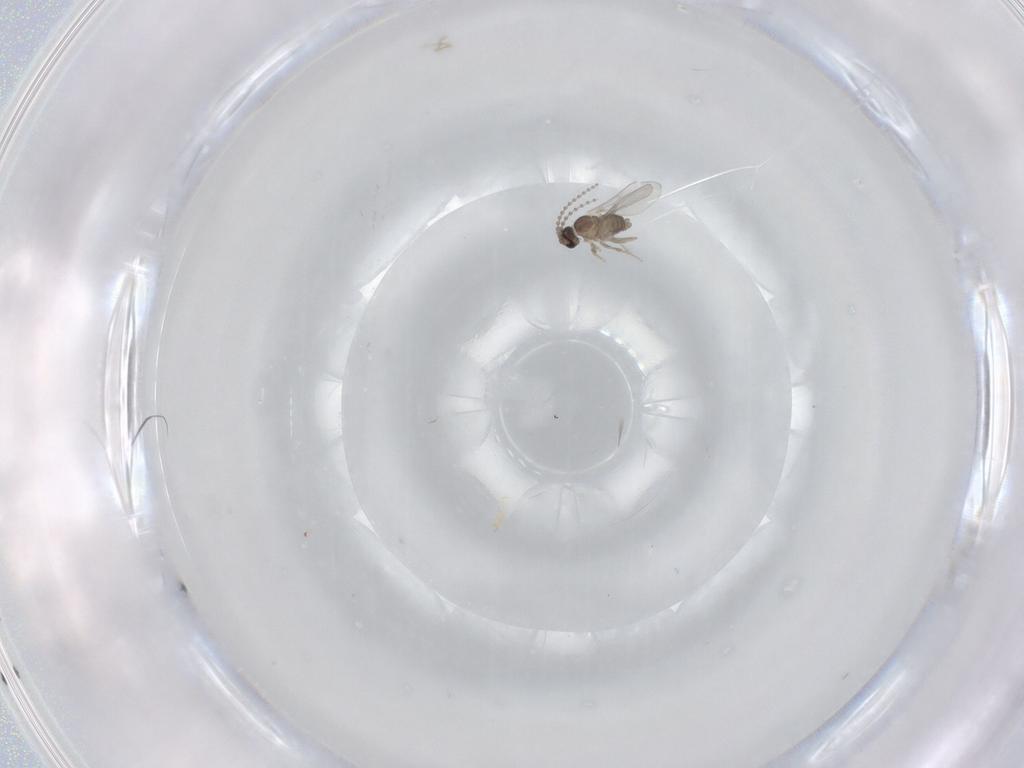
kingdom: Animalia
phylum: Arthropoda
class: Insecta
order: Diptera
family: Cecidomyiidae
